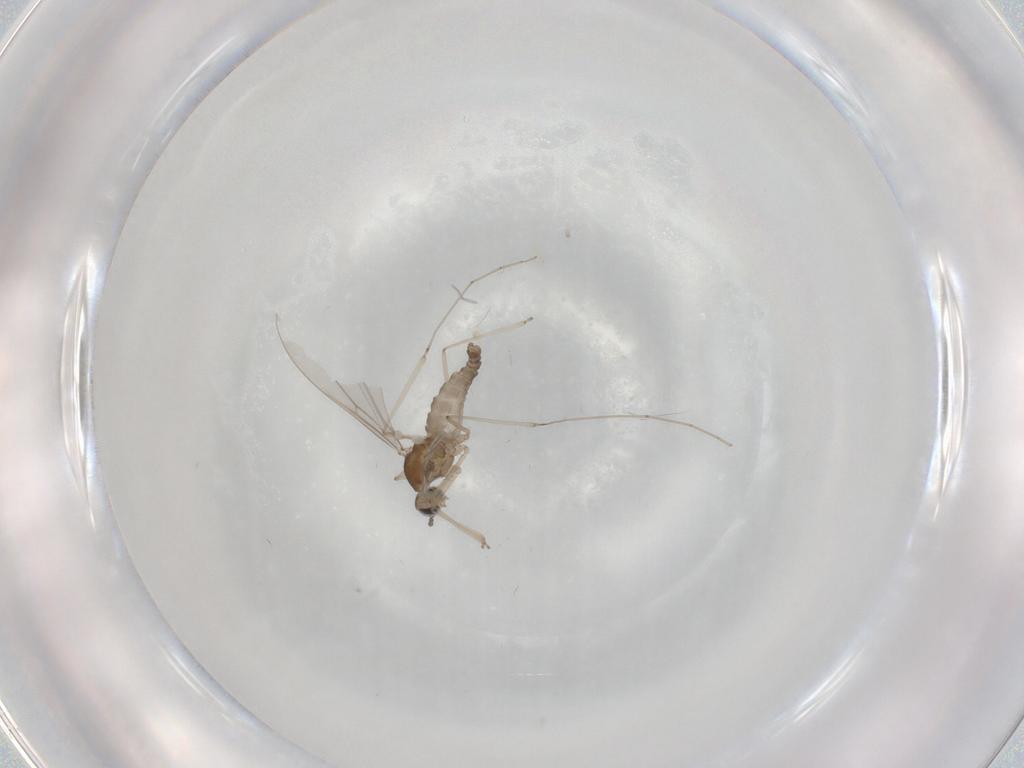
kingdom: Animalia
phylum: Arthropoda
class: Insecta
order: Diptera
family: Cecidomyiidae
